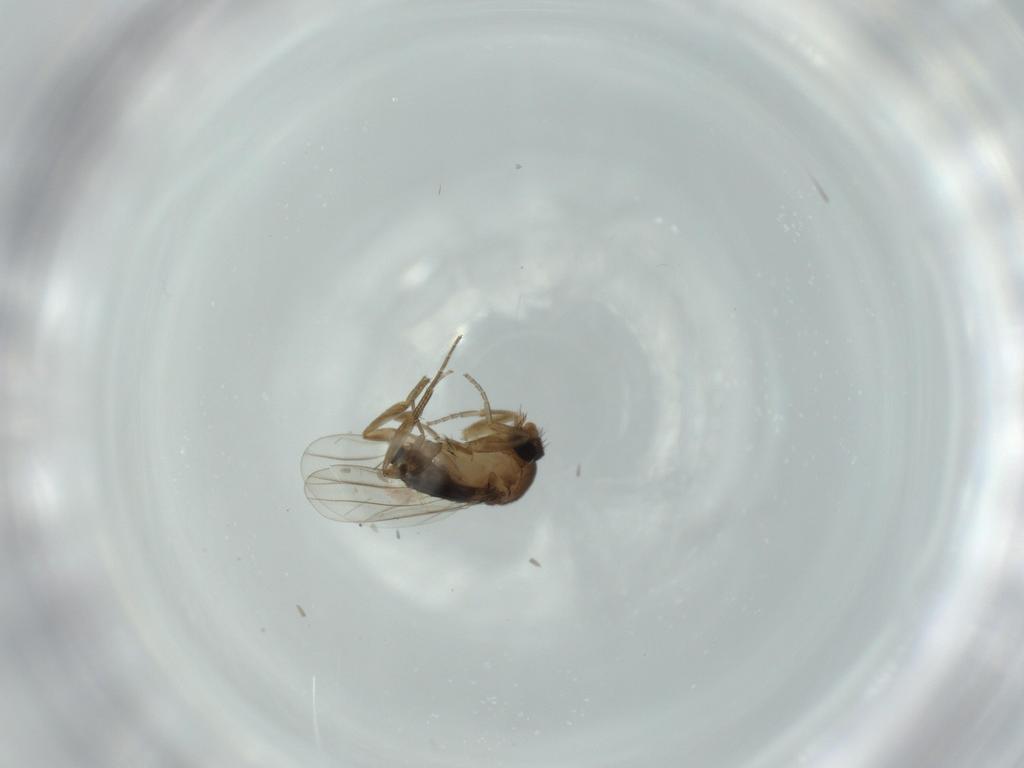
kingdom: Animalia
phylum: Arthropoda
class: Insecta
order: Diptera
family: Phoridae
